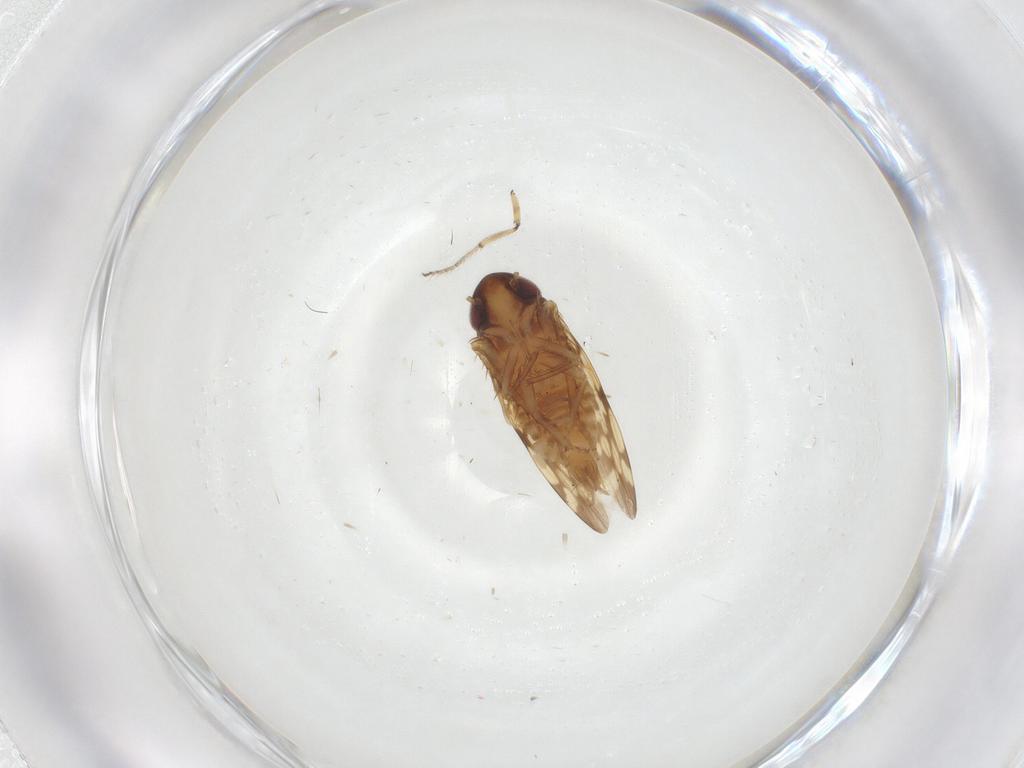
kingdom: Animalia
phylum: Arthropoda
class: Insecta
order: Hemiptera
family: Cicadellidae
